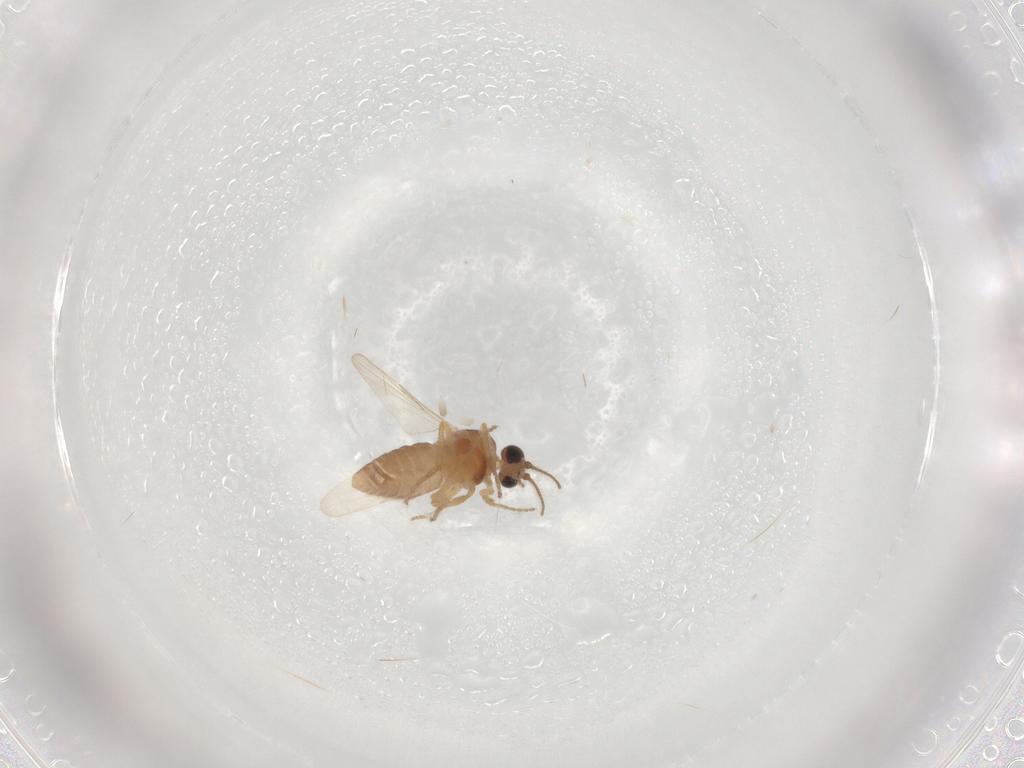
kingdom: Animalia
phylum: Arthropoda
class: Insecta
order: Diptera
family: Ceratopogonidae
